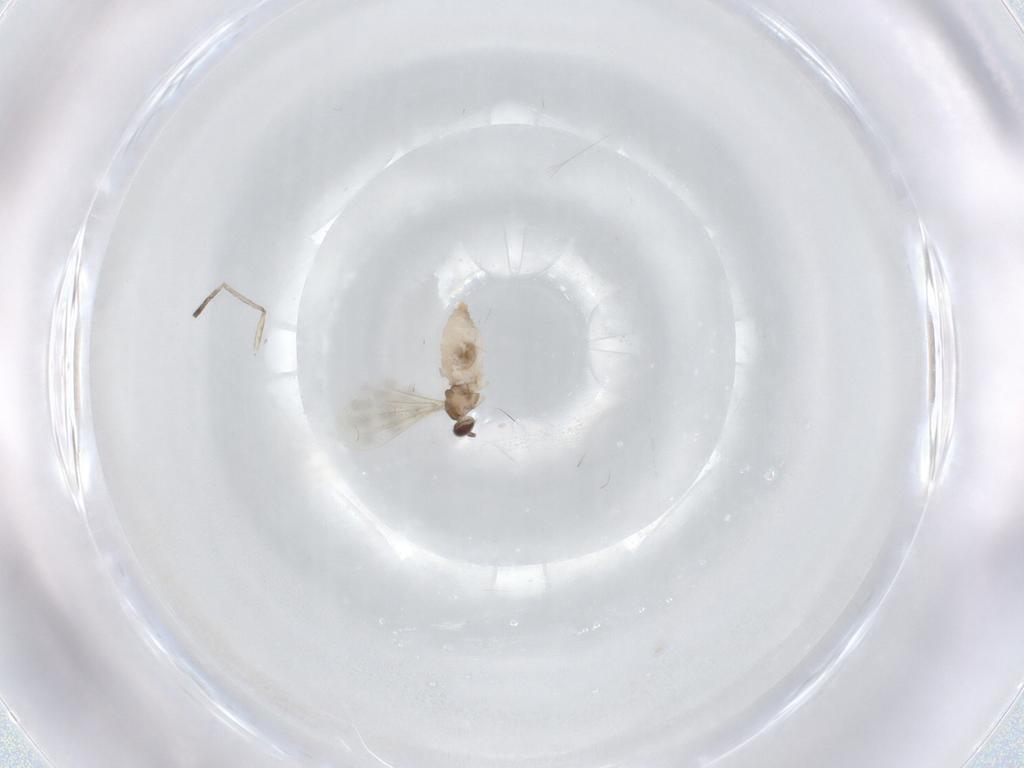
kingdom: Animalia
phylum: Arthropoda
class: Insecta
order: Diptera
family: Cecidomyiidae
